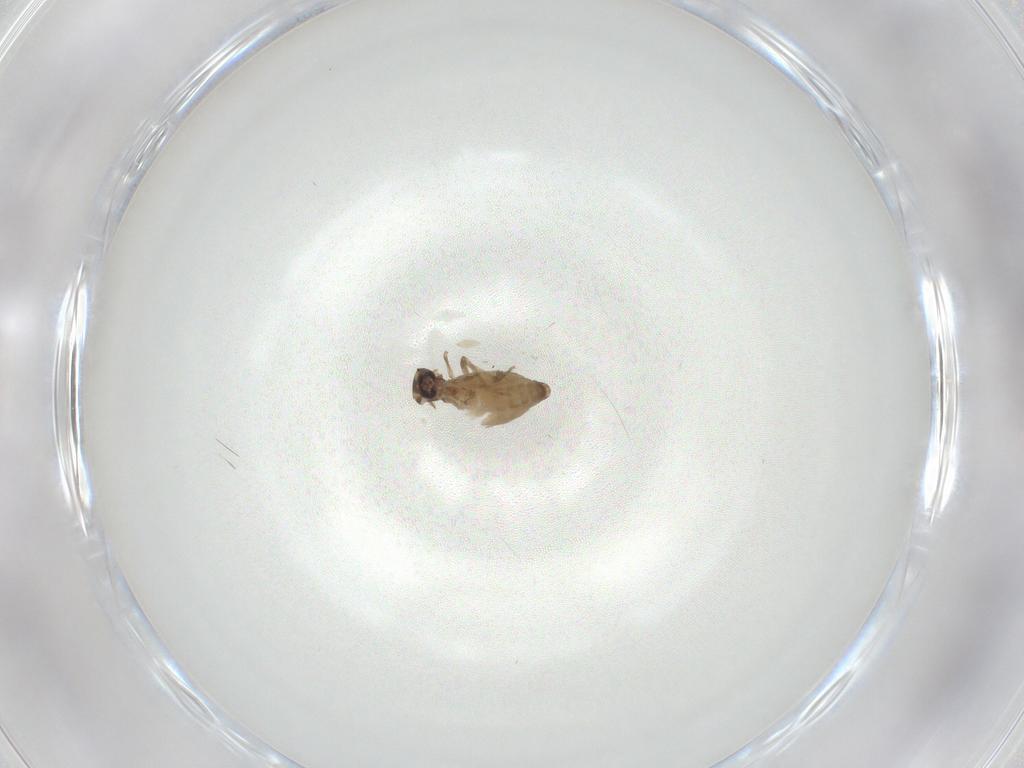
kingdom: Animalia
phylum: Arthropoda
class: Insecta
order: Diptera
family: Ceratopogonidae
